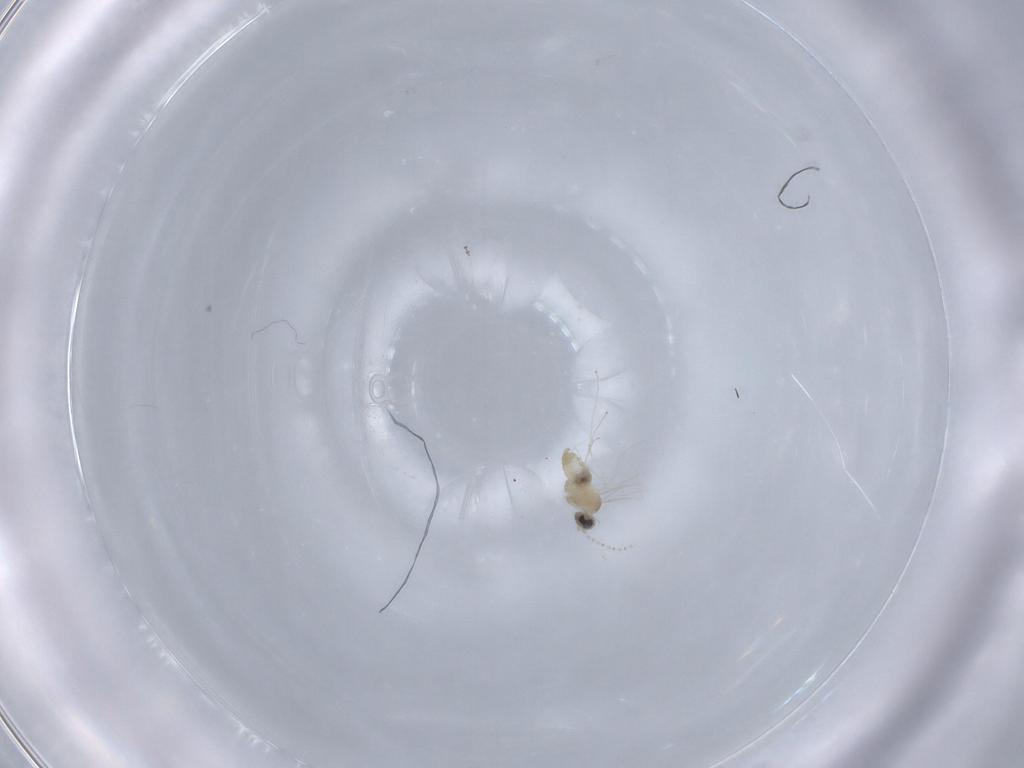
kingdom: Animalia
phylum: Arthropoda
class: Insecta
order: Diptera
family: Cecidomyiidae
